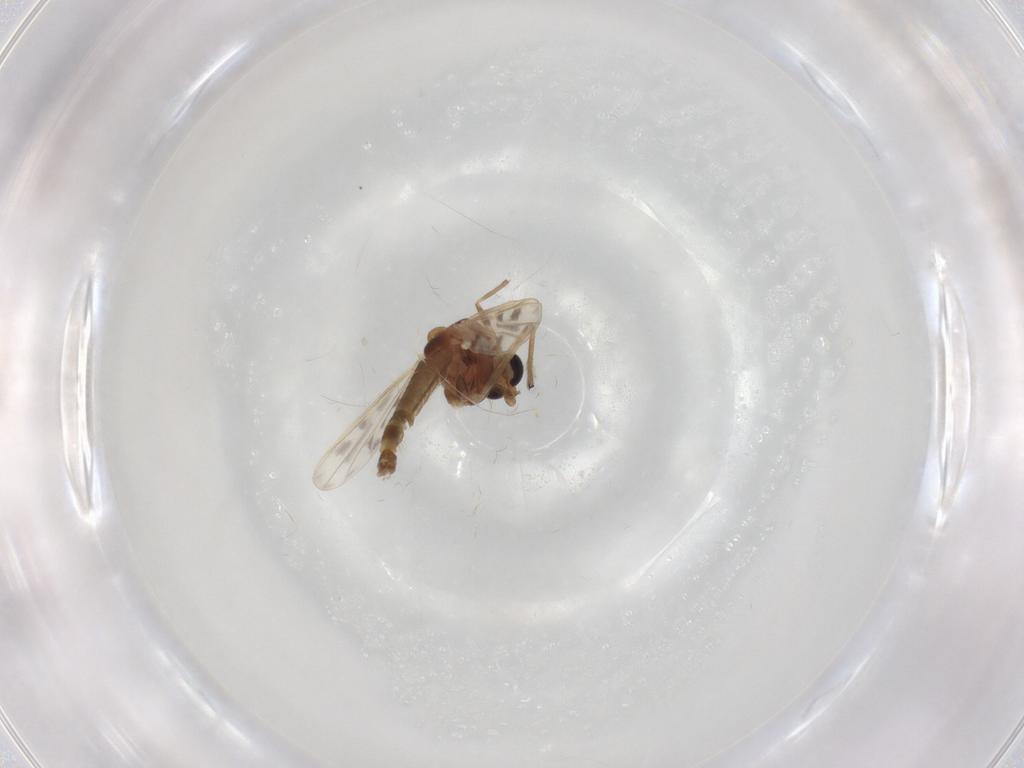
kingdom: Animalia
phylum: Arthropoda
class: Insecta
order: Diptera
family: Chironomidae
